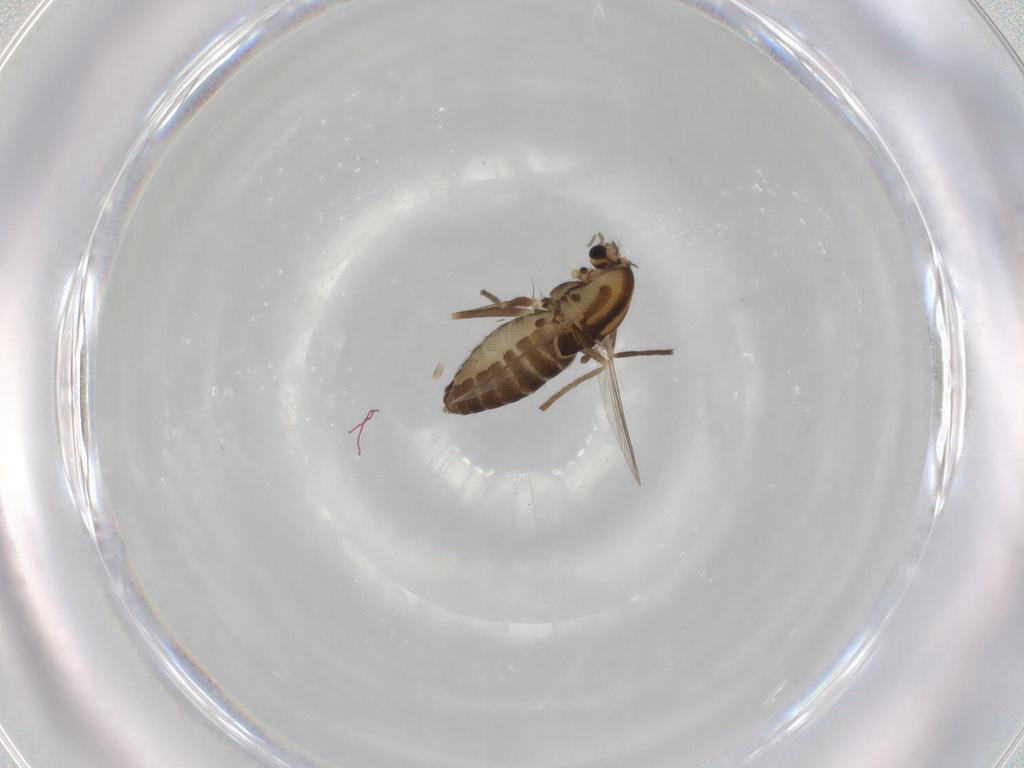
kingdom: Animalia
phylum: Arthropoda
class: Insecta
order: Diptera
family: Chironomidae
